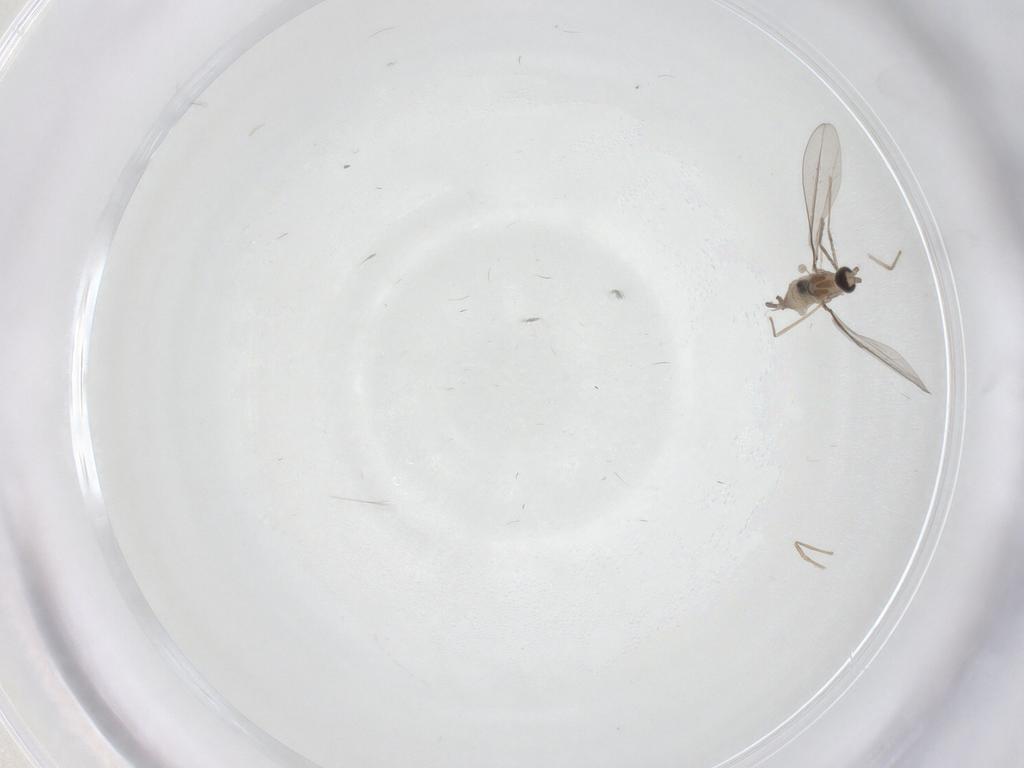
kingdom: Animalia
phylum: Arthropoda
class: Insecta
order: Diptera
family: Chironomidae
